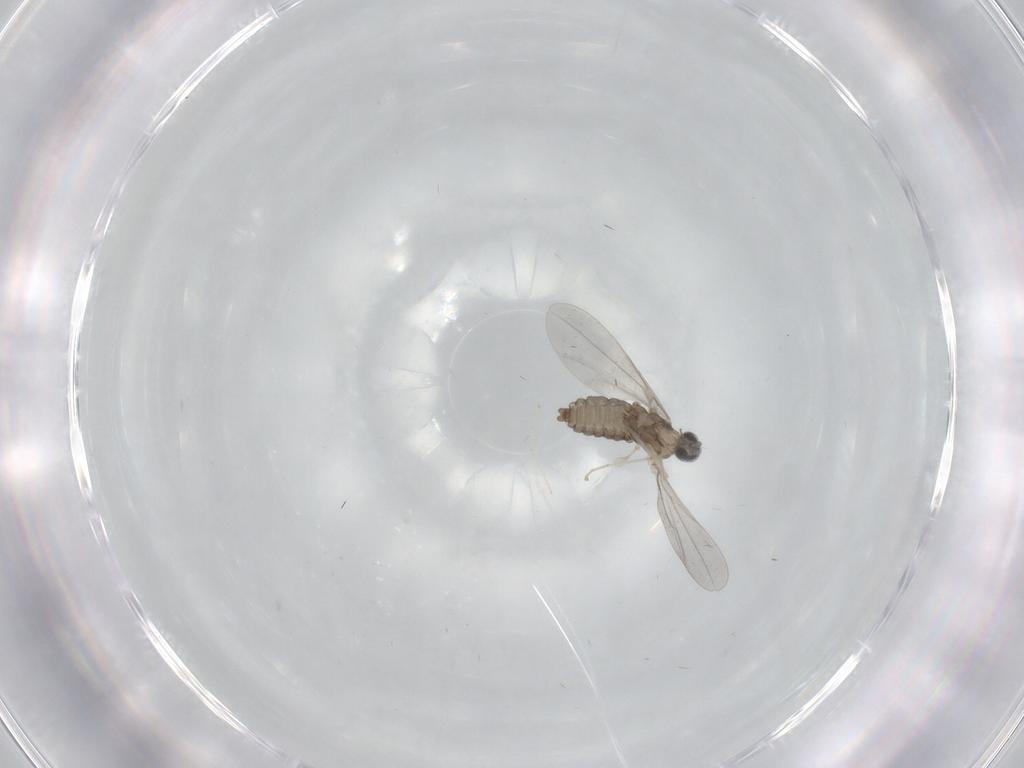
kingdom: Animalia
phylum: Arthropoda
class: Insecta
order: Diptera
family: Cecidomyiidae
